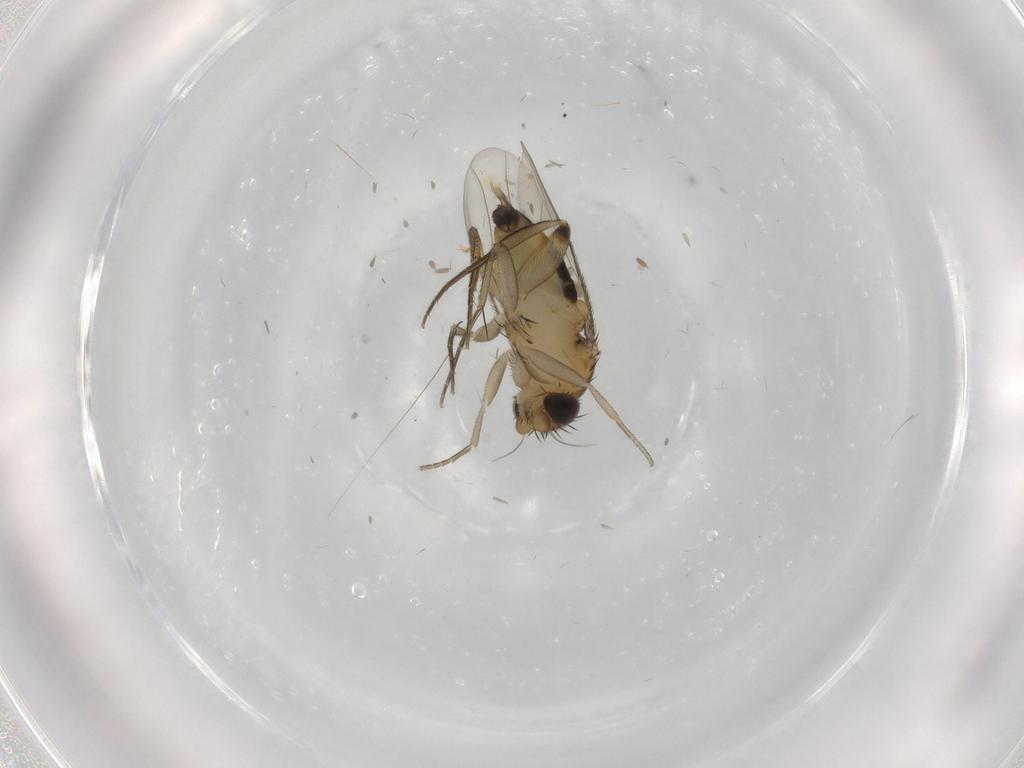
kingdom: Animalia
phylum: Arthropoda
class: Insecta
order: Diptera
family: Phoridae
